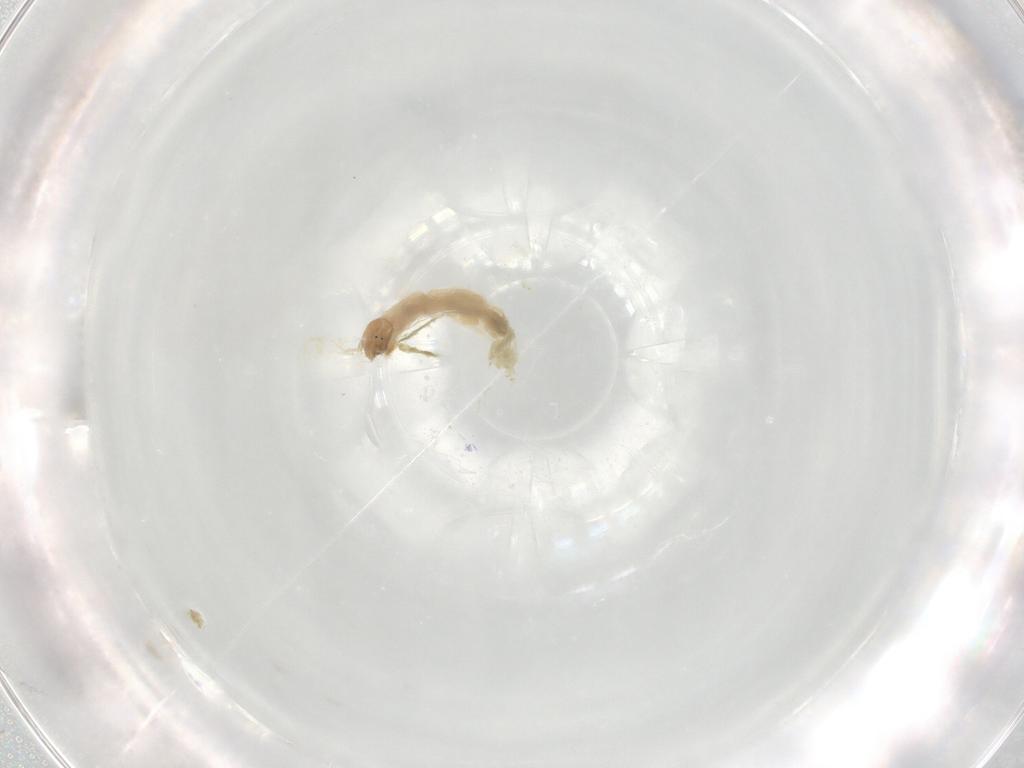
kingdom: Animalia
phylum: Arthropoda
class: Insecta
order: Diptera
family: Chironomidae
